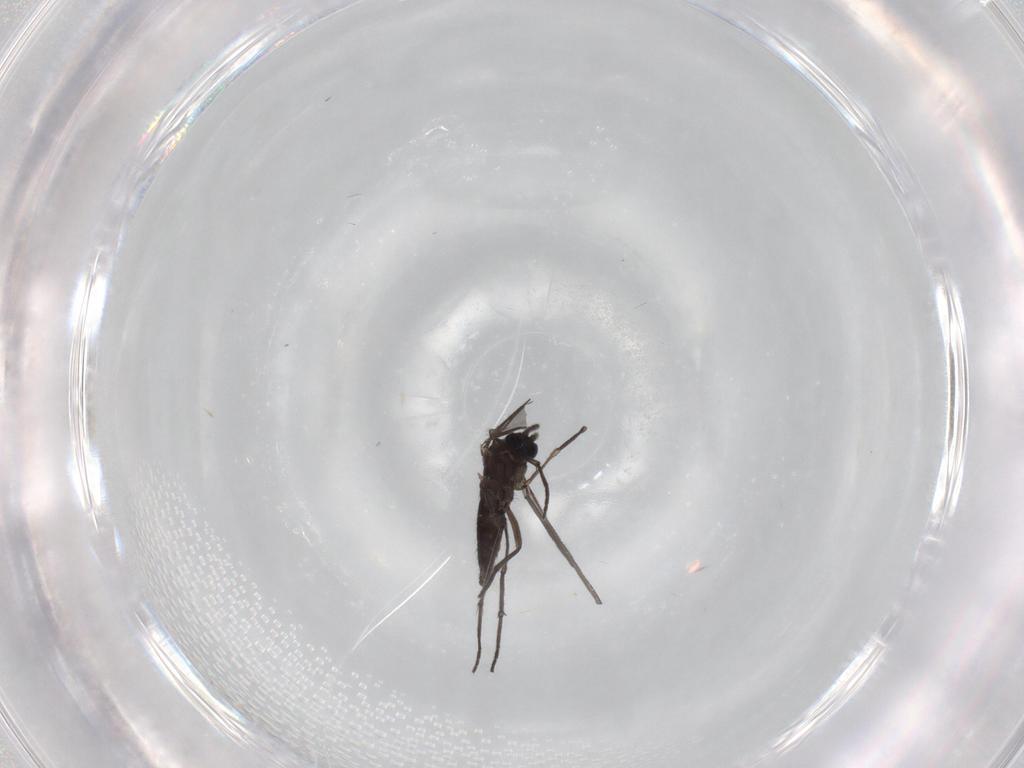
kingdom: Animalia
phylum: Arthropoda
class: Insecta
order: Diptera
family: Sciaridae
